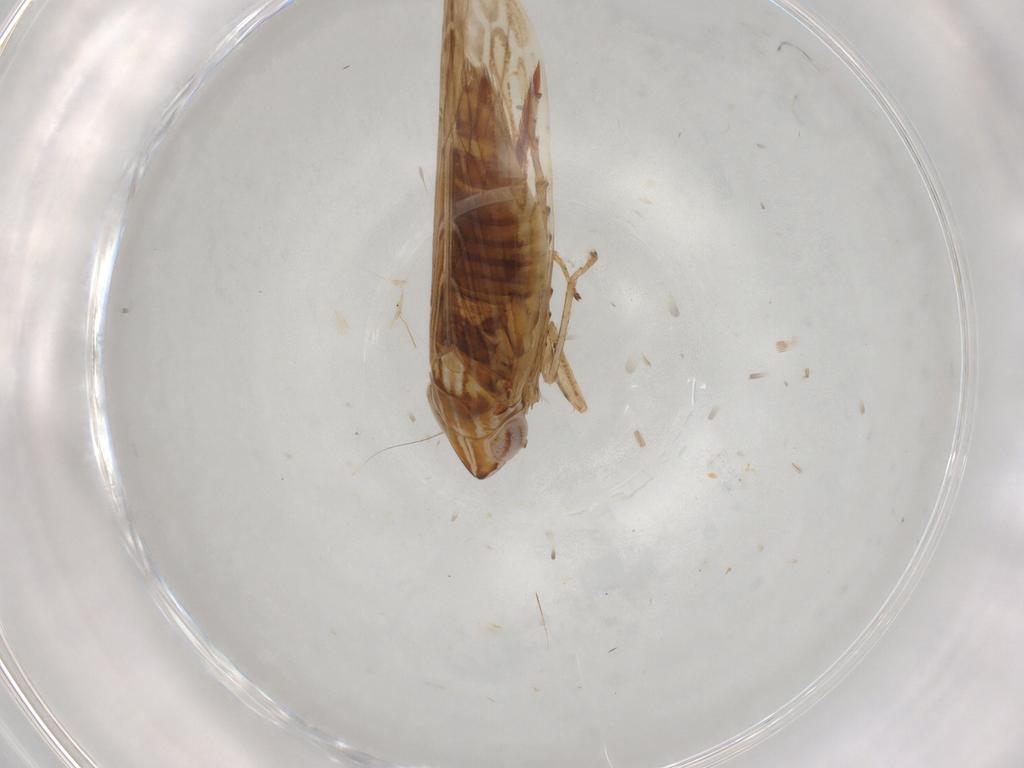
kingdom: Animalia
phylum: Arthropoda
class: Insecta
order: Hemiptera
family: Cicadellidae
